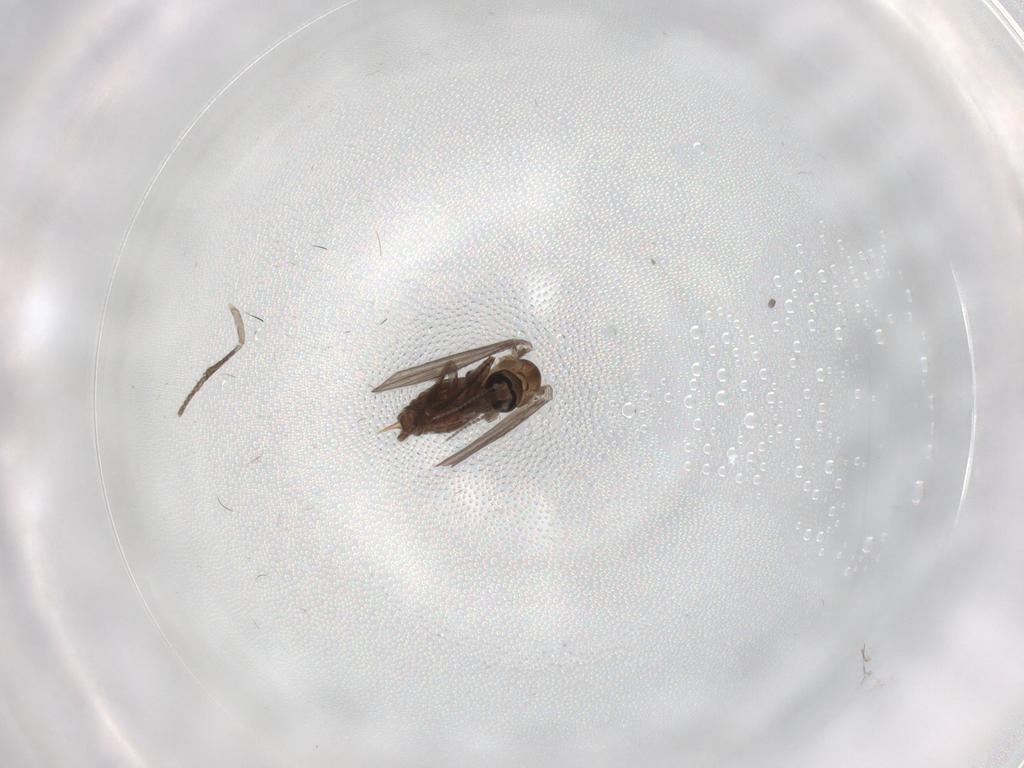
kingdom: Animalia
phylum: Arthropoda
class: Insecta
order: Diptera
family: Psychodidae
